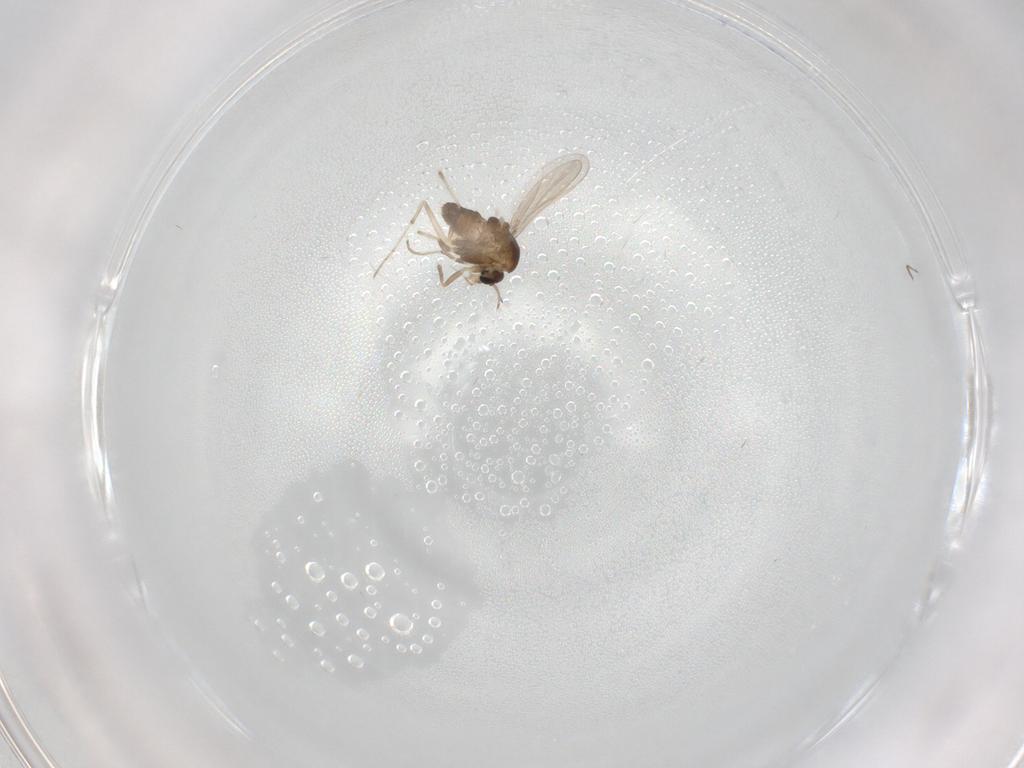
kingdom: Animalia
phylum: Arthropoda
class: Insecta
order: Diptera
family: Chironomidae
